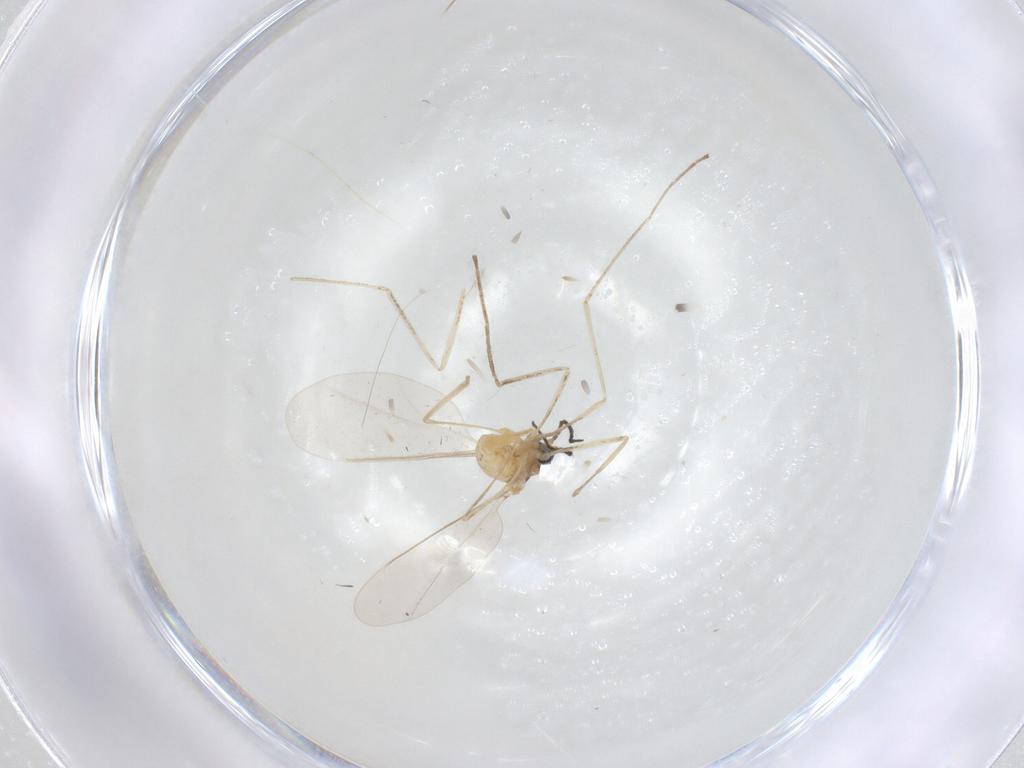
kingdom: Animalia
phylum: Arthropoda
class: Insecta
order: Diptera
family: Cecidomyiidae
